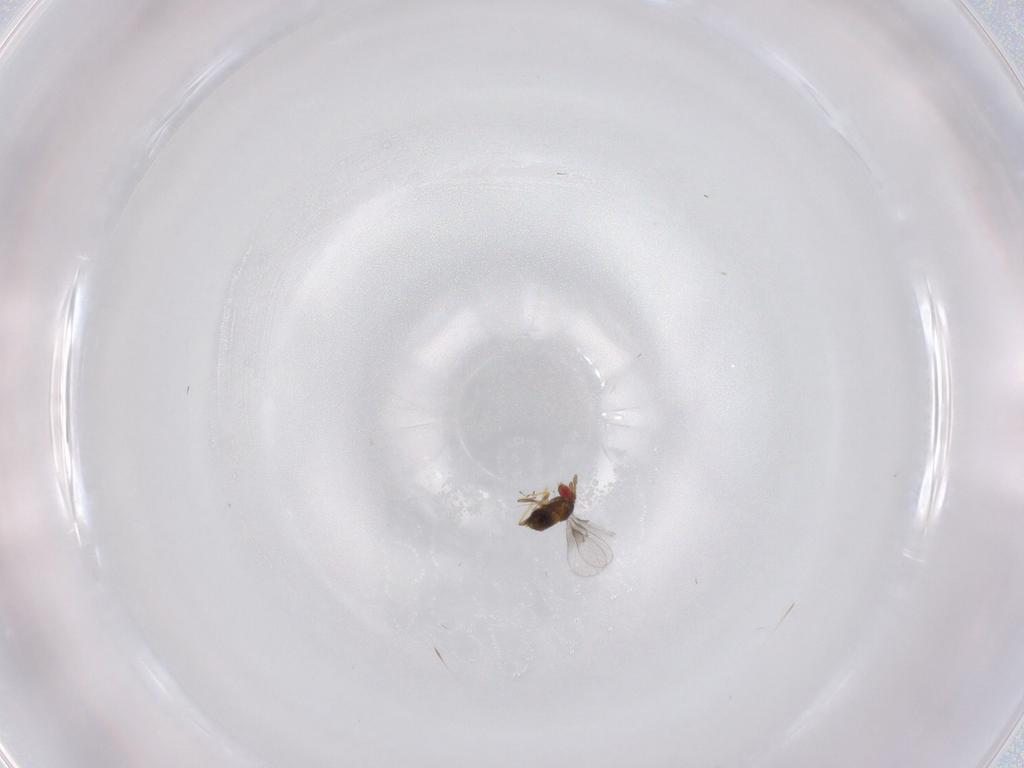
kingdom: Animalia
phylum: Arthropoda
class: Insecta
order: Hymenoptera
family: Trichogrammatidae
